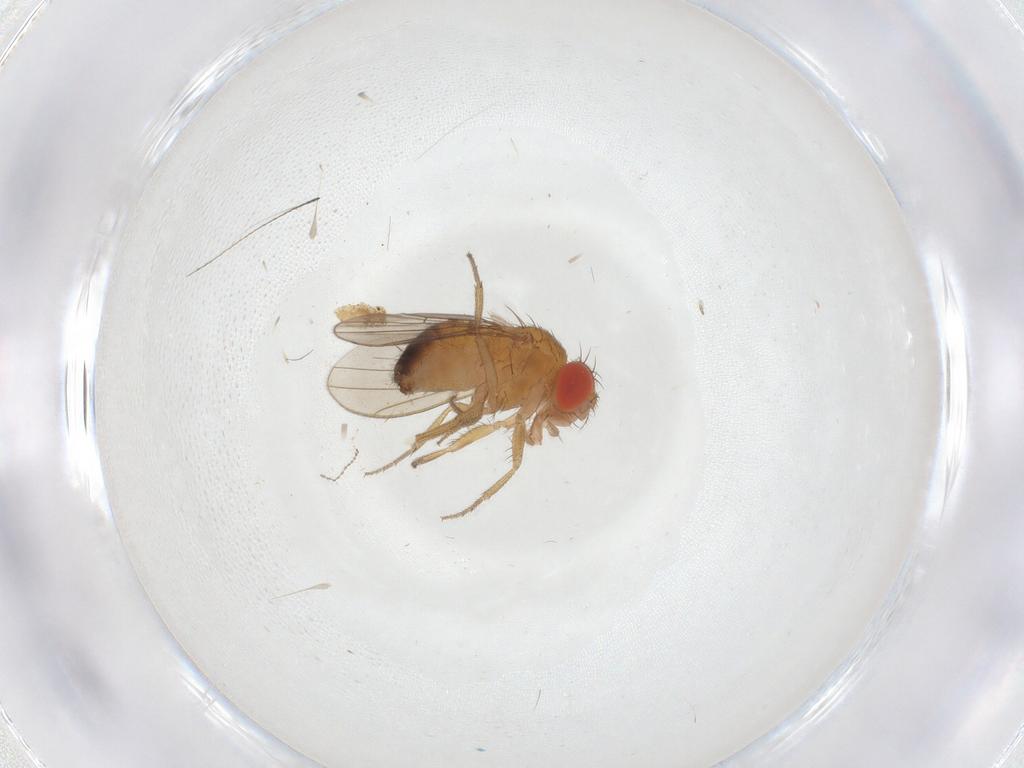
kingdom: Animalia
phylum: Arthropoda
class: Insecta
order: Diptera
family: Drosophilidae
